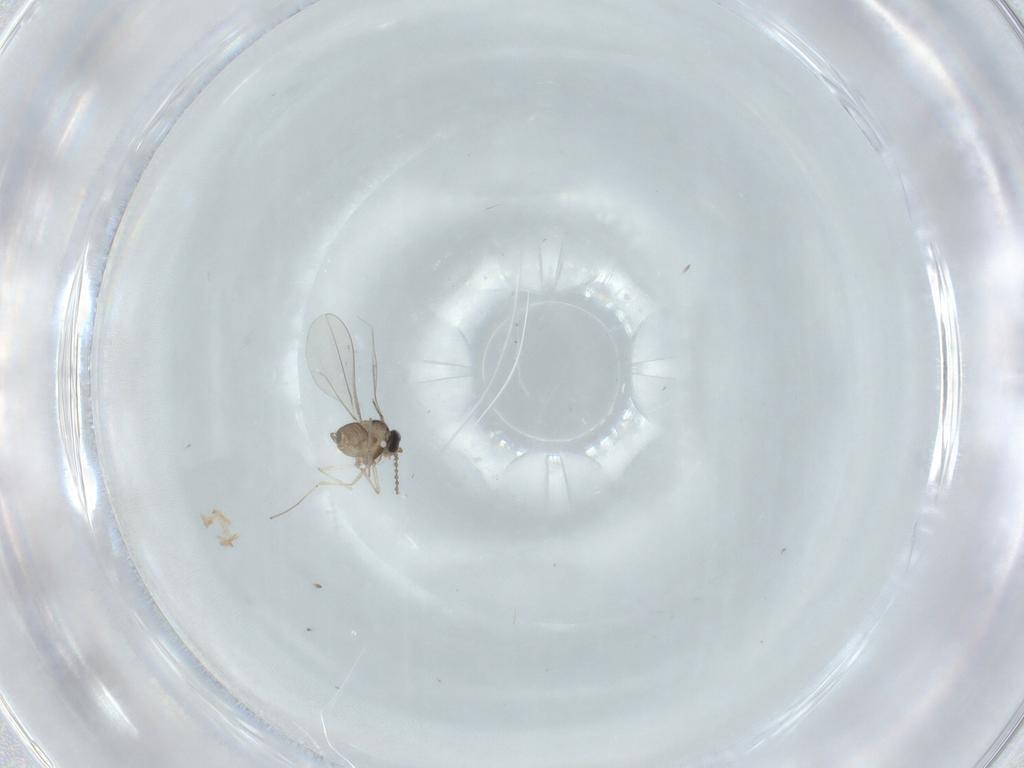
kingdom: Animalia
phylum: Arthropoda
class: Insecta
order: Diptera
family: Cecidomyiidae
